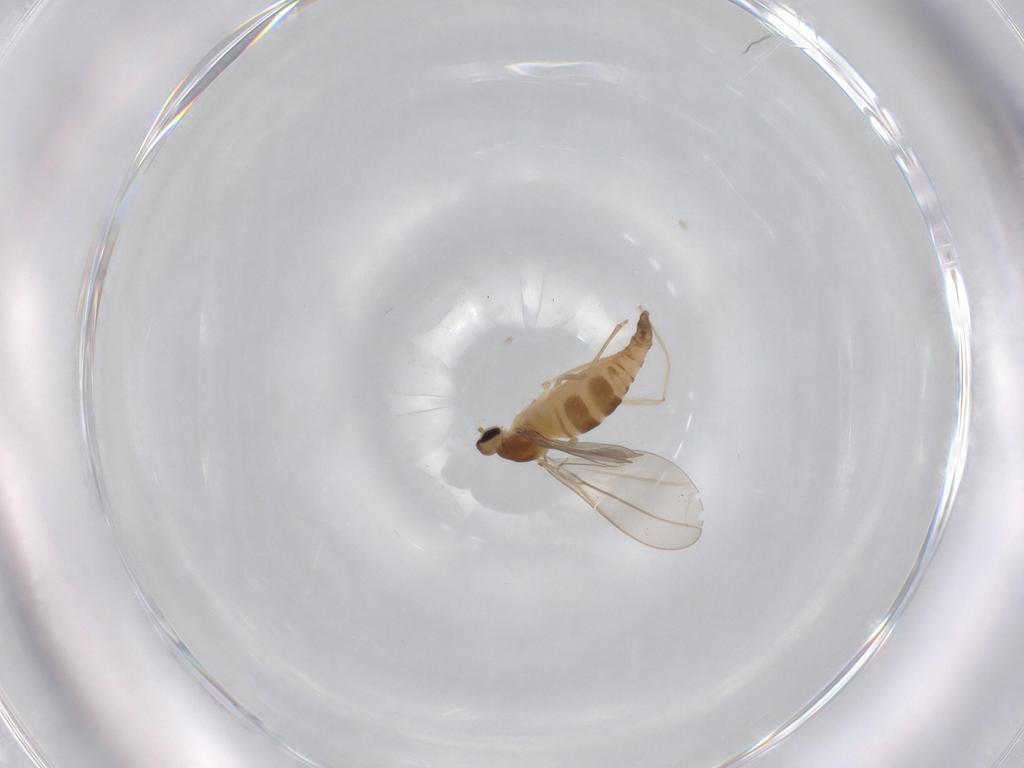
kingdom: Animalia
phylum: Arthropoda
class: Insecta
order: Diptera
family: Cecidomyiidae
